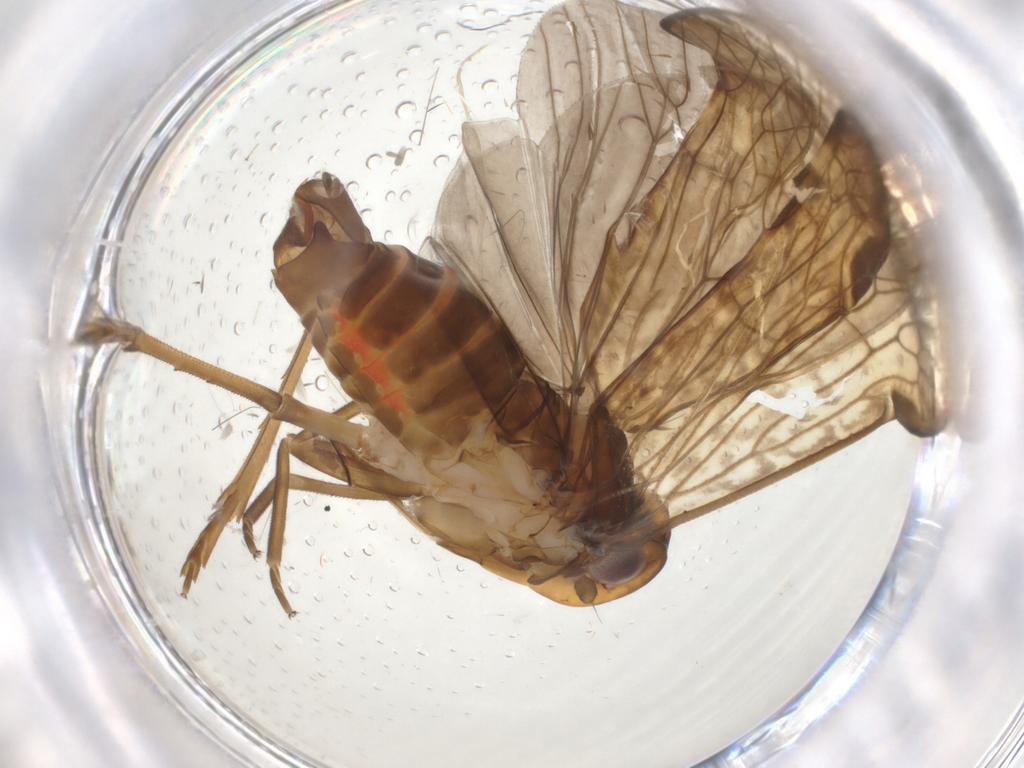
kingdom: Animalia
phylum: Arthropoda
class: Insecta
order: Hemiptera
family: Cixiidae
